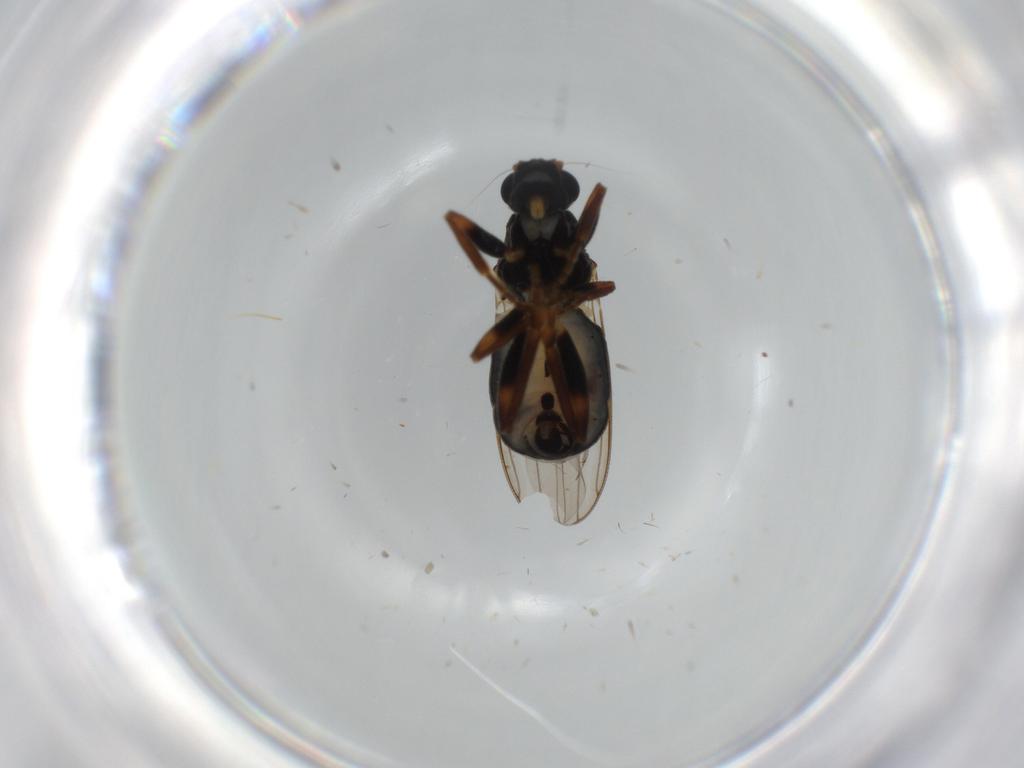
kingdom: Animalia
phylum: Arthropoda
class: Insecta
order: Diptera
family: Sphaeroceridae
